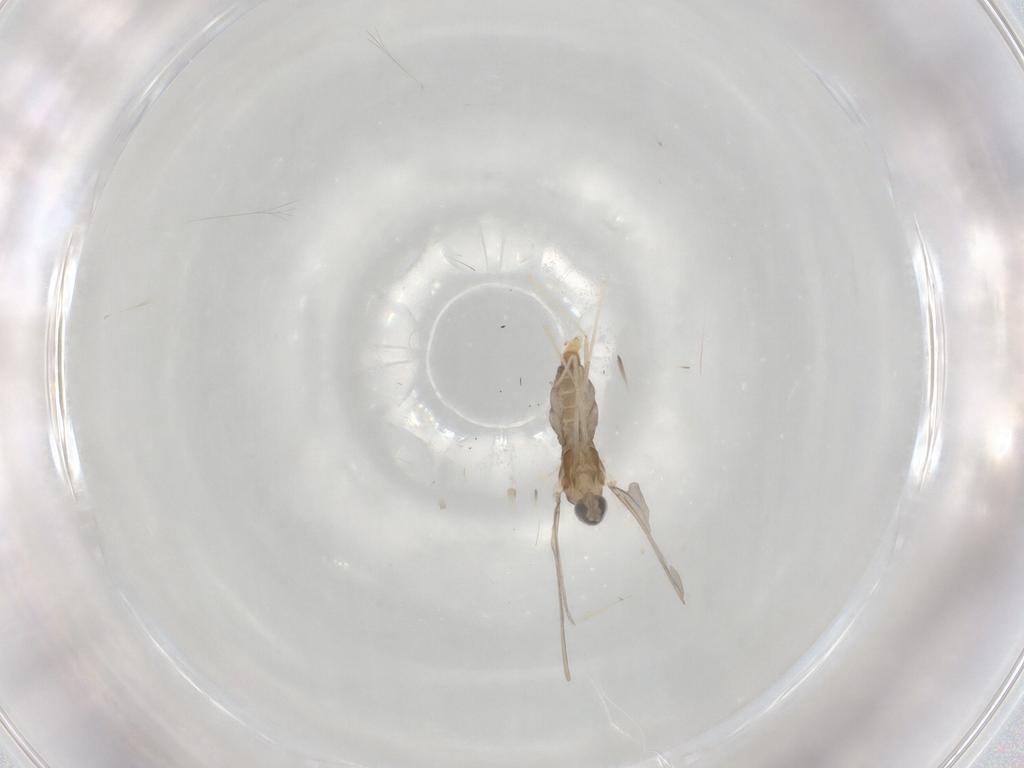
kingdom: Animalia
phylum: Arthropoda
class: Insecta
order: Diptera
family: Cecidomyiidae
